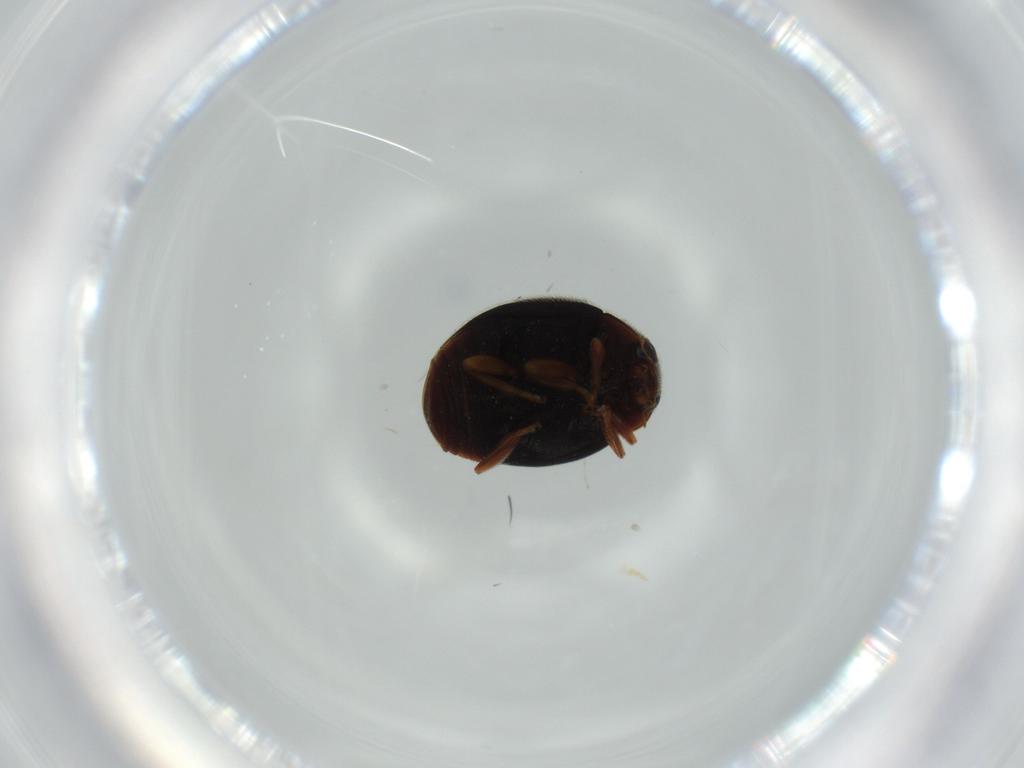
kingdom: Animalia
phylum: Arthropoda
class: Insecta
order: Coleoptera
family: Coccinellidae
